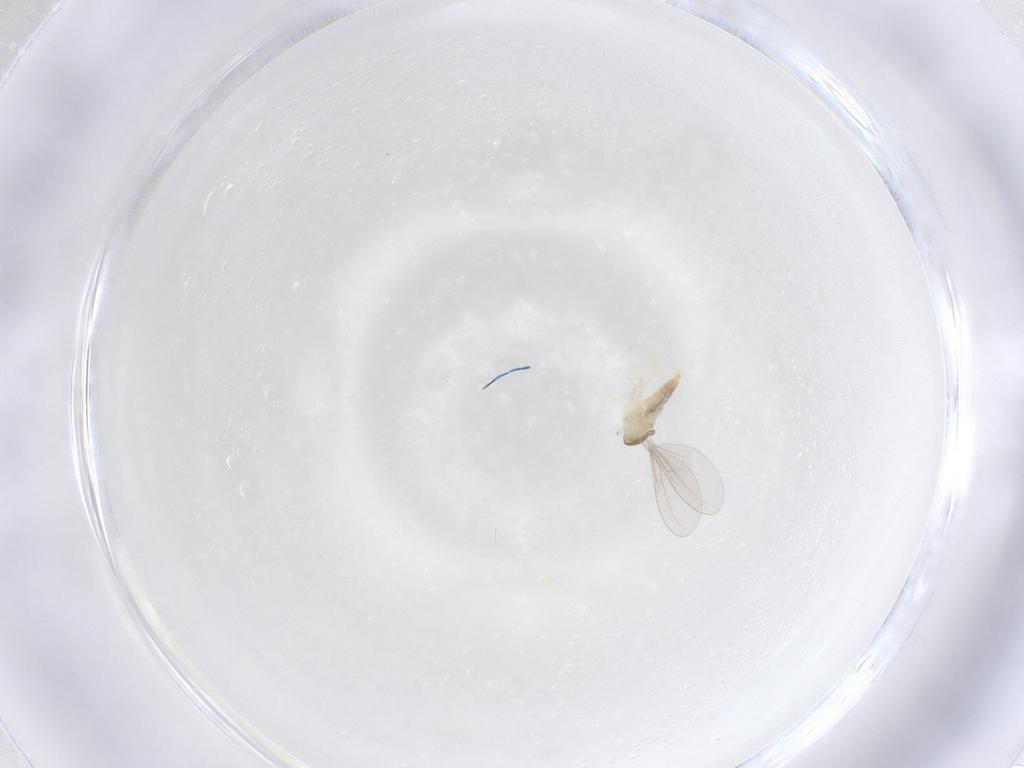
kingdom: Animalia
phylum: Arthropoda
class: Insecta
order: Diptera
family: Cecidomyiidae
